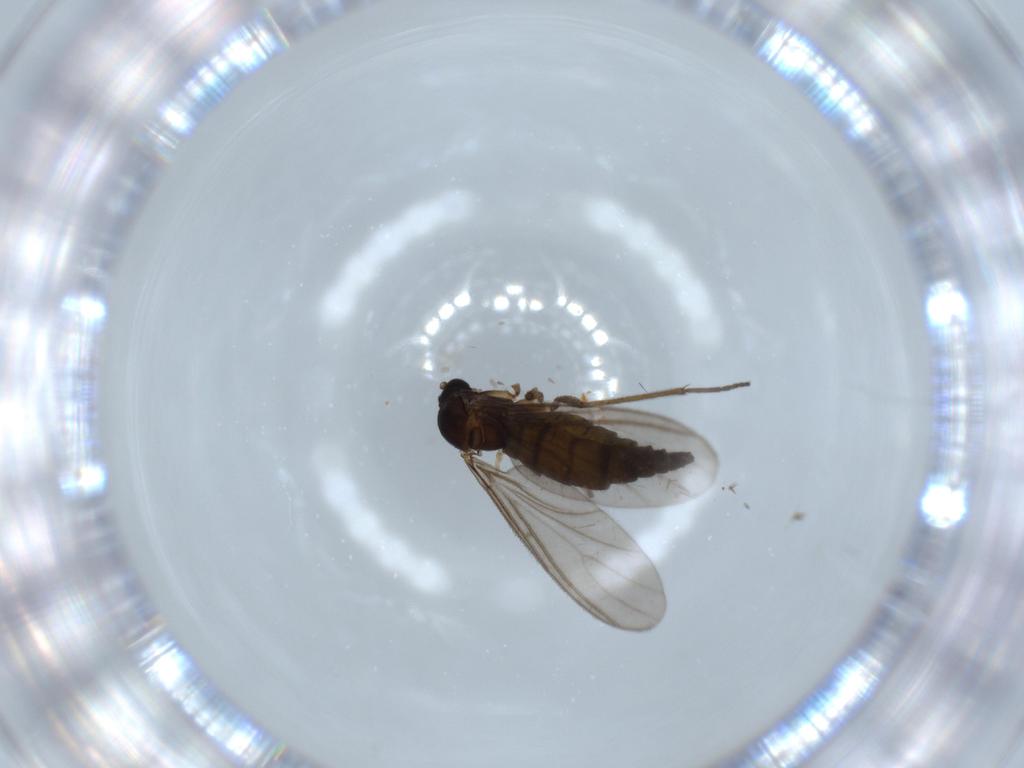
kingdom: Animalia
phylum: Arthropoda
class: Insecta
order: Diptera
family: Sciaridae
